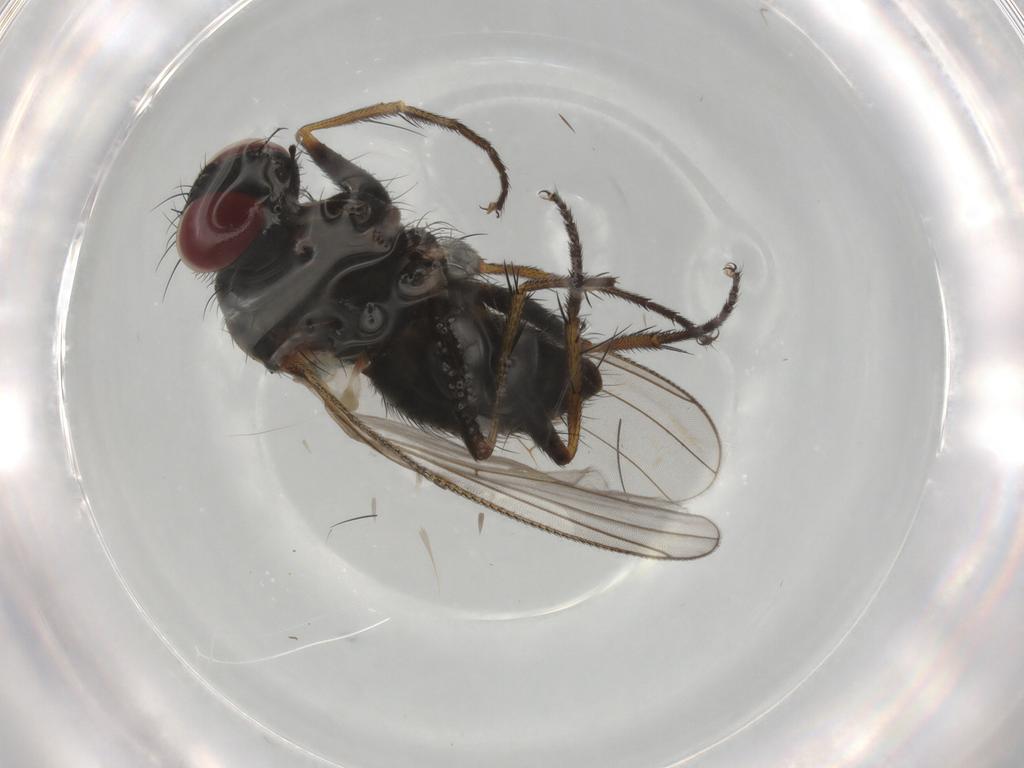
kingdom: Animalia
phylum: Arthropoda
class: Insecta
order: Diptera
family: Muscidae
